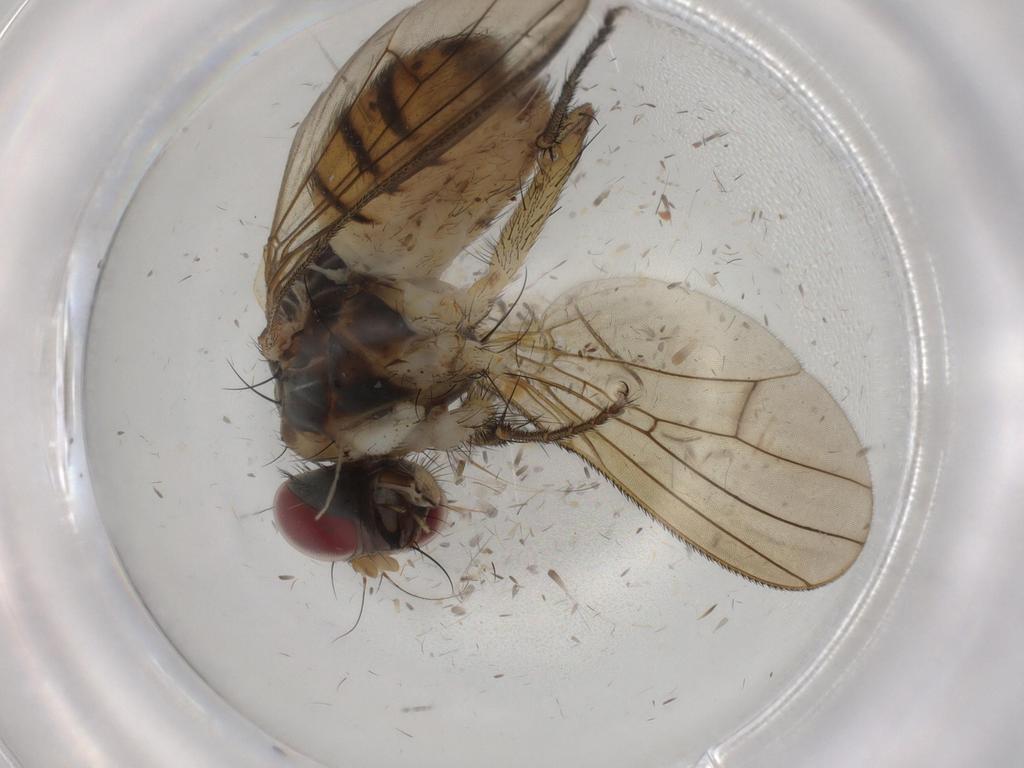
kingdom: Animalia
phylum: Arthropoda
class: Insecta
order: Diptera
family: Muscidae
